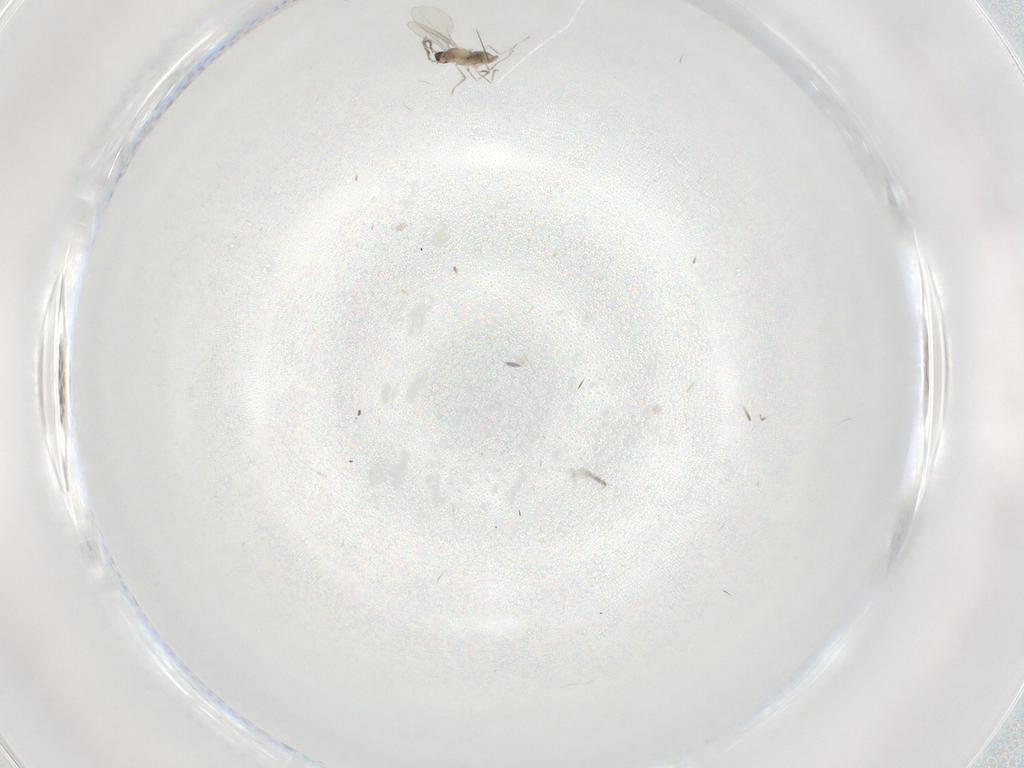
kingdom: Animalia
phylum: Arthropoda
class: Insecta
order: Diptera
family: Cecidomyiidae
